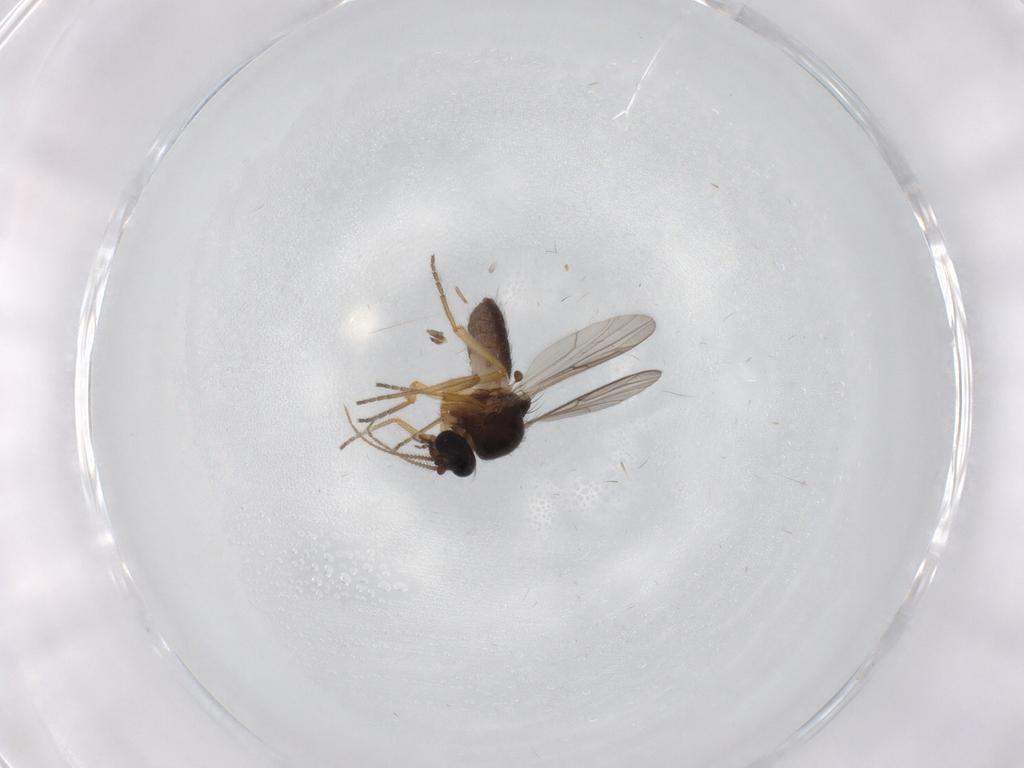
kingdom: Animalia
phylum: Arthropoda
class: Insecta
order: Diptera
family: Ceratopogonidae
